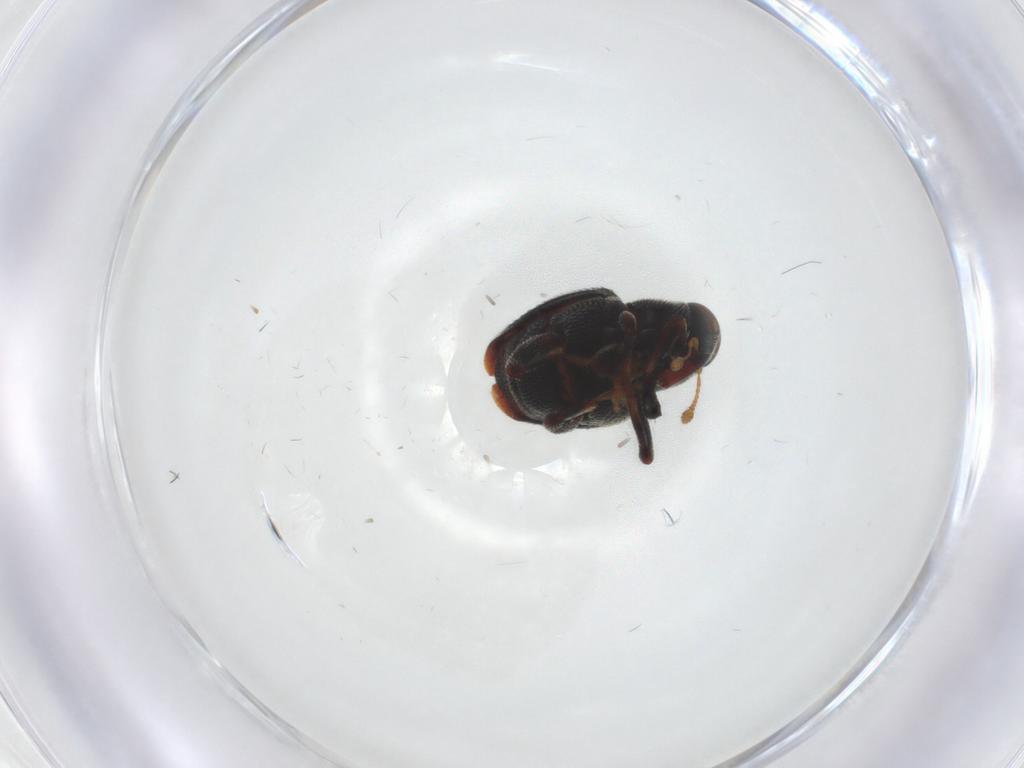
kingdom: Animalia
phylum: Arthropoda
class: Insecta
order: Coleoptera
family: Curculionidae
